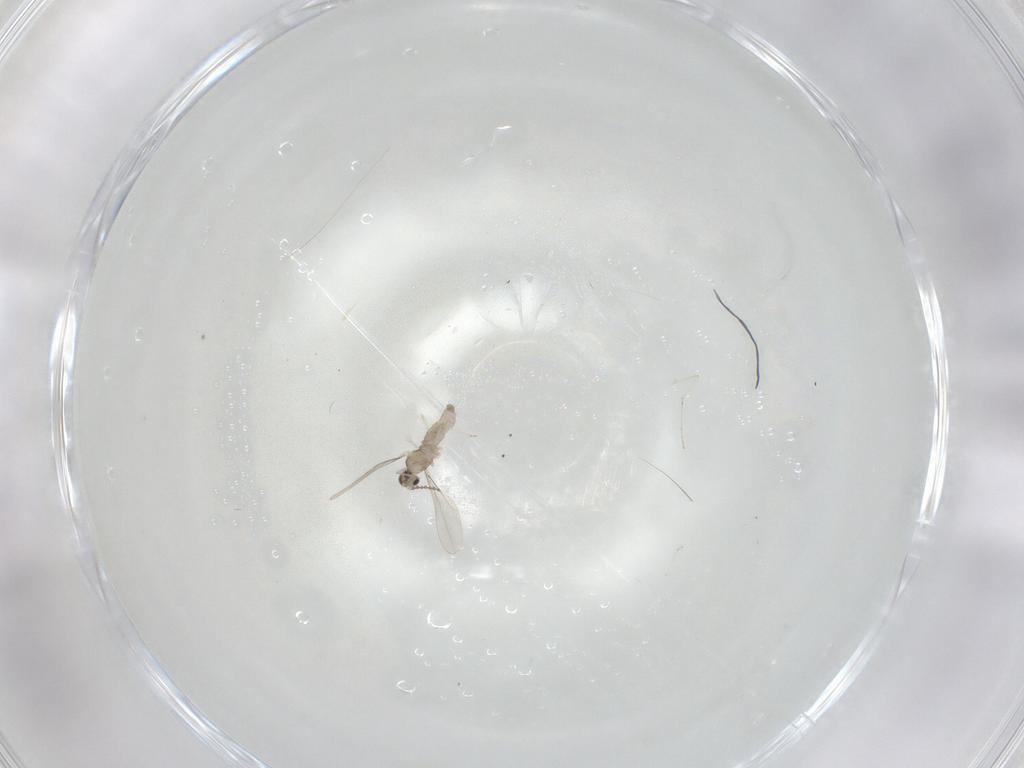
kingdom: Animalia
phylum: Arthropoda
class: Insecta
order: Diptera
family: Cecidomyiidae
